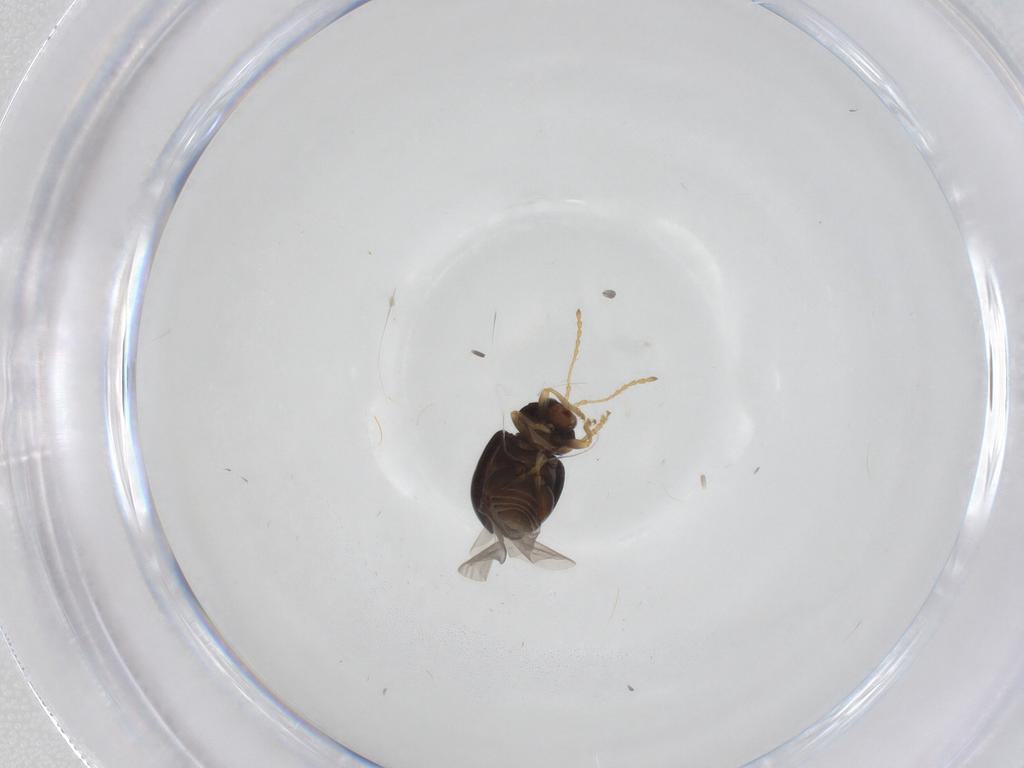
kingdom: Animalia
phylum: Arthropoda
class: Insecta
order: Coleoptera
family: Chrysomelidae
